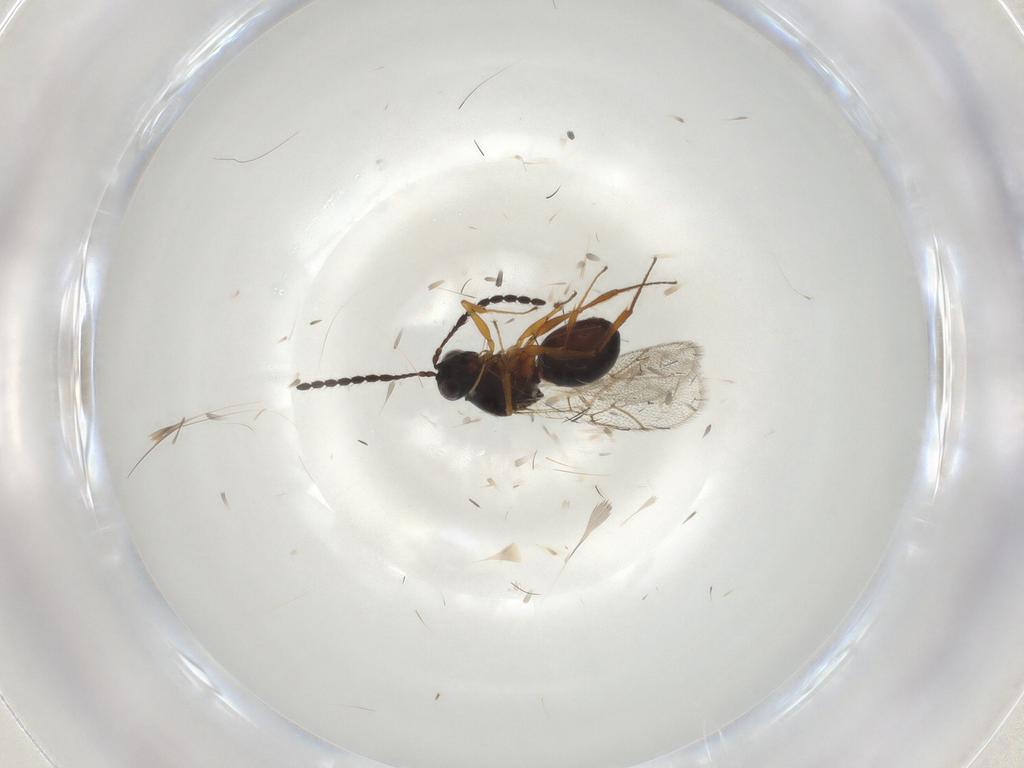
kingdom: Animalia
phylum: Arthropoda
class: Insecta
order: Hymenoptera
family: Figitidae
